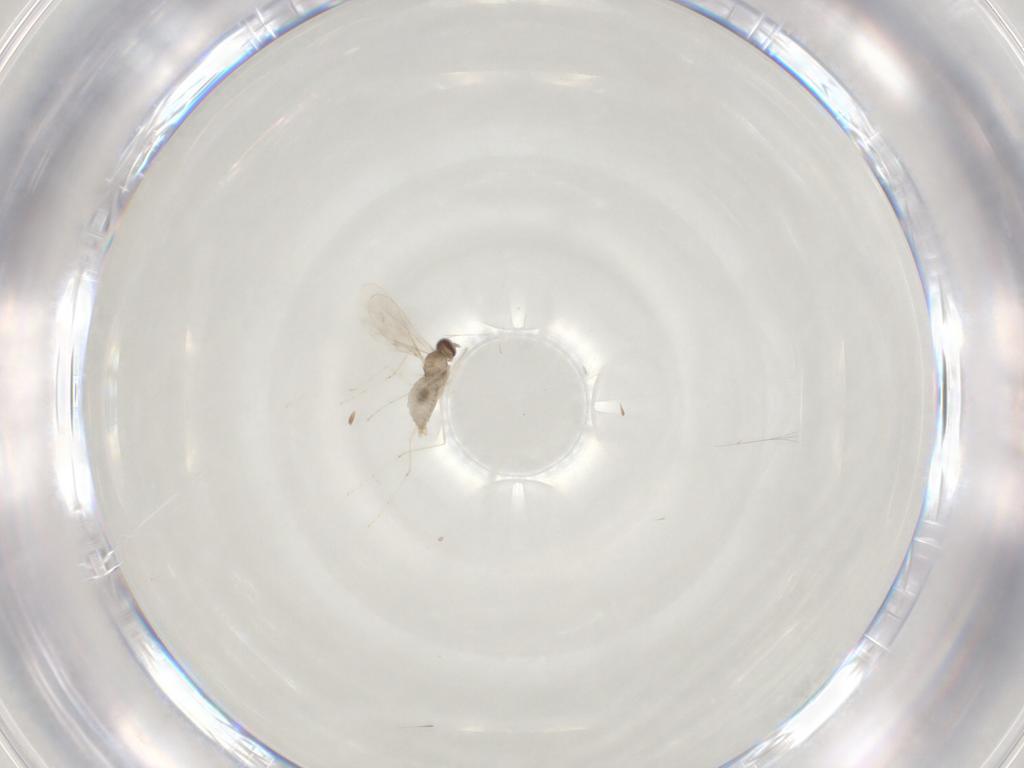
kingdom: Animalia
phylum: Arthropoda
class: Insecta
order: Diptera
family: Cecidomyiidae
